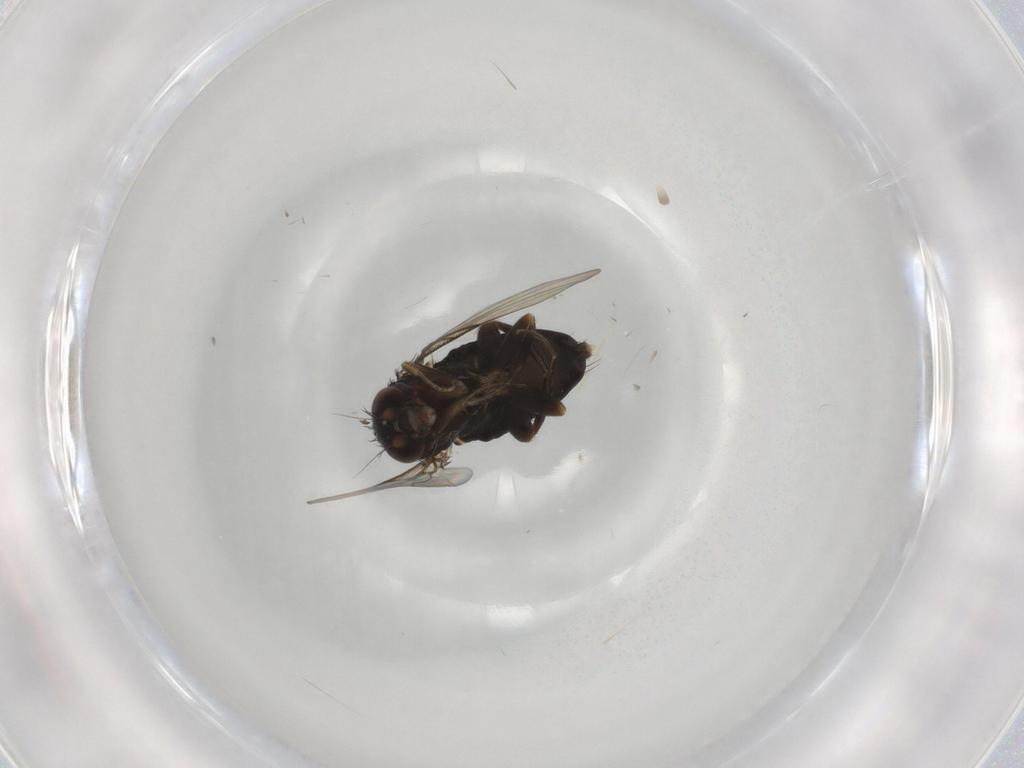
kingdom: Animalia
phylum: Arthropoda
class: Insecta
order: Diptera
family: Phoridae
